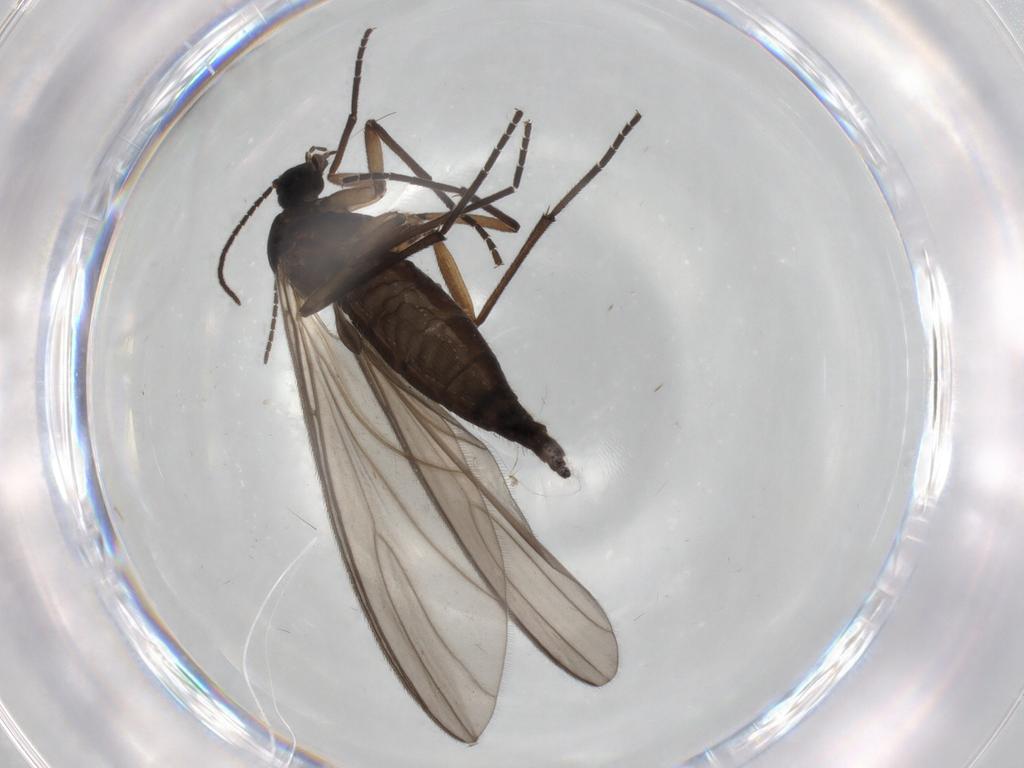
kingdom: Animalia
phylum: Arthropoda
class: Insecta
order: Diptera
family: Sciaridae
